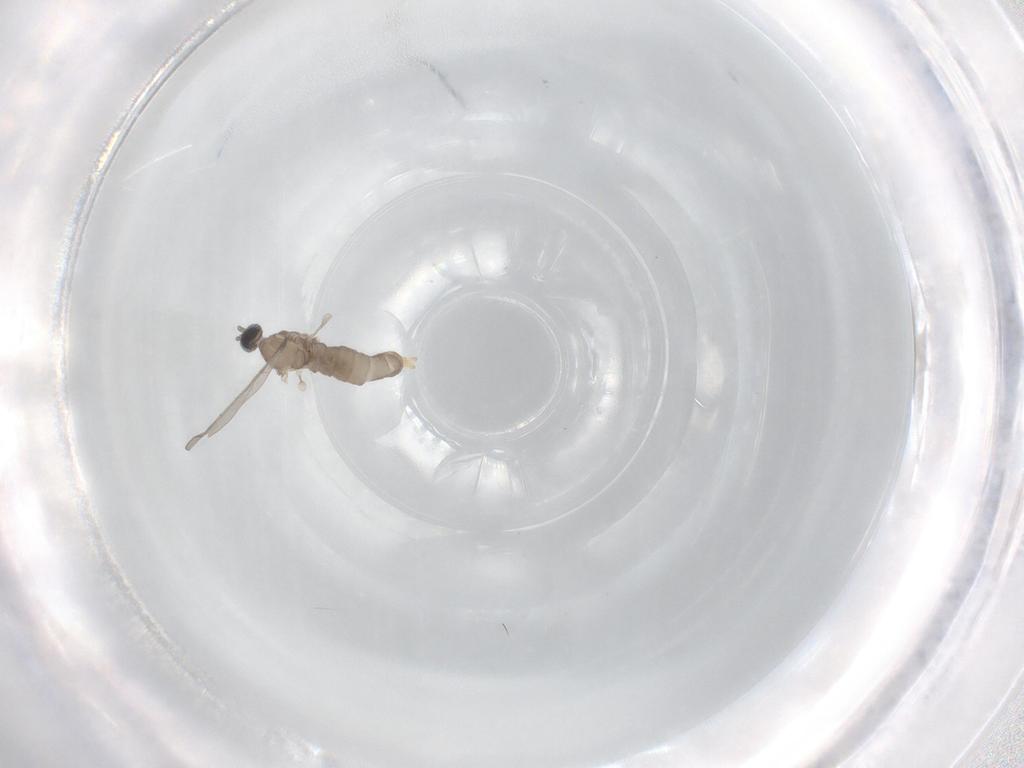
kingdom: Animalia
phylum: Arthropoda
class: Insecta
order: Diptera
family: Cecidomyiidae
